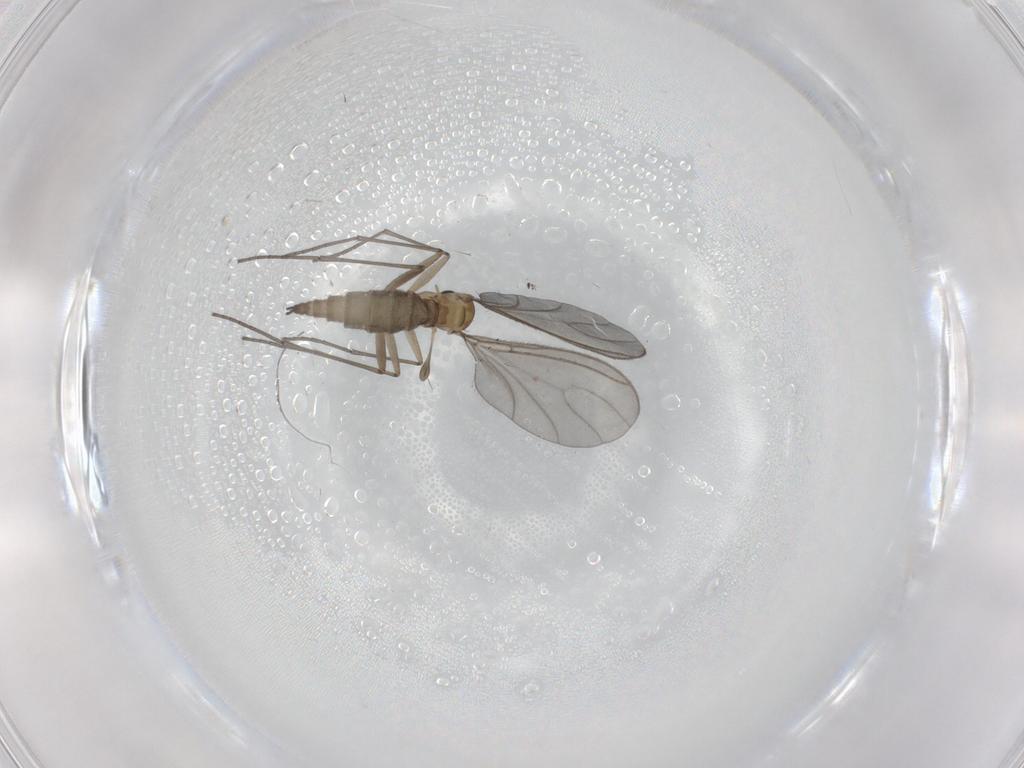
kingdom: Animalia
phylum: Arthropoda
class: Insecta
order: Diptera
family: Sciaridae
